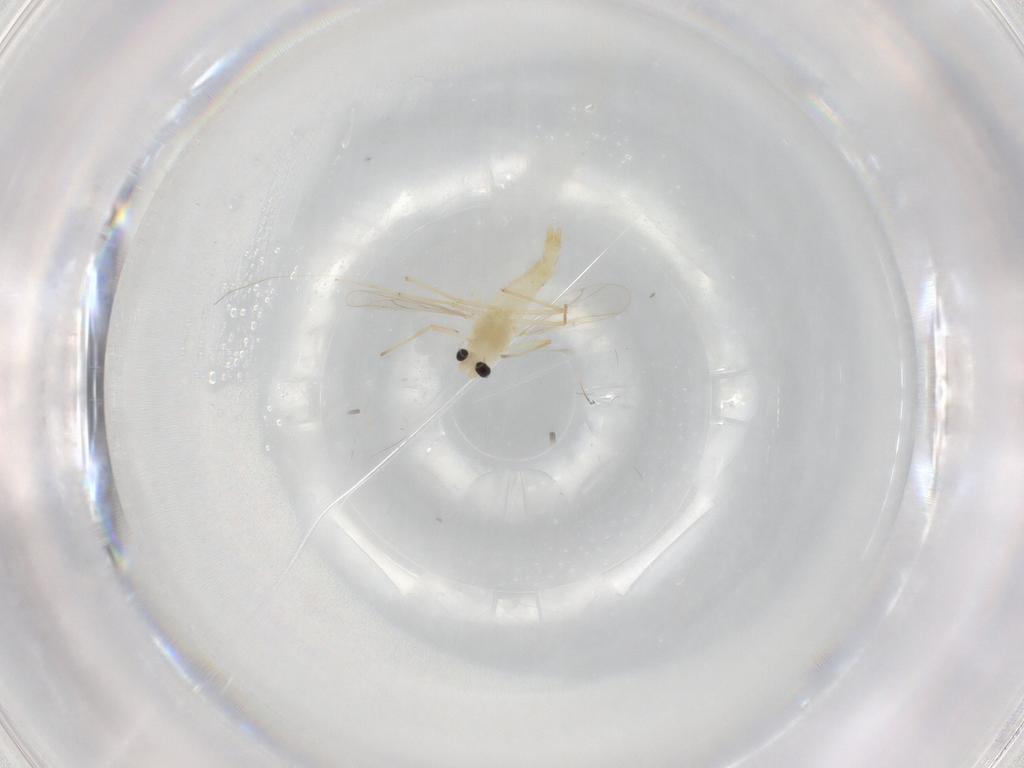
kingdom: Animalia
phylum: Arthropoda
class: Insecta
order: Diptera
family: Chironomidae
